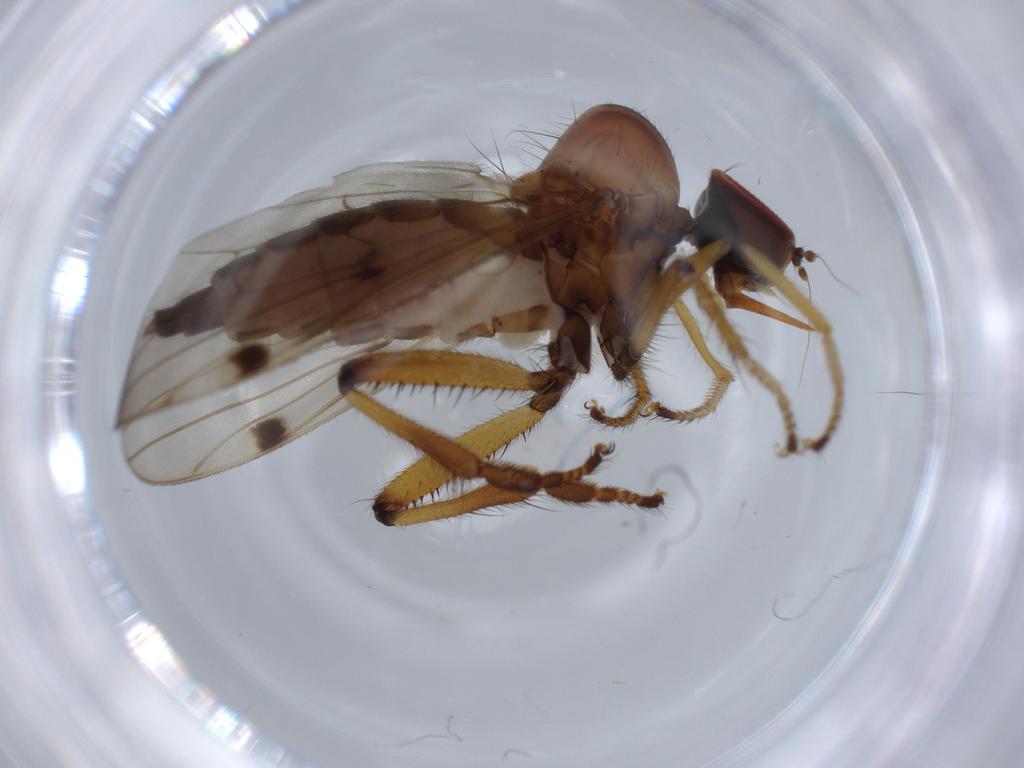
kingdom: Animalia
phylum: Arthropoda
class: Insecta
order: Diptera
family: Hybotidae
